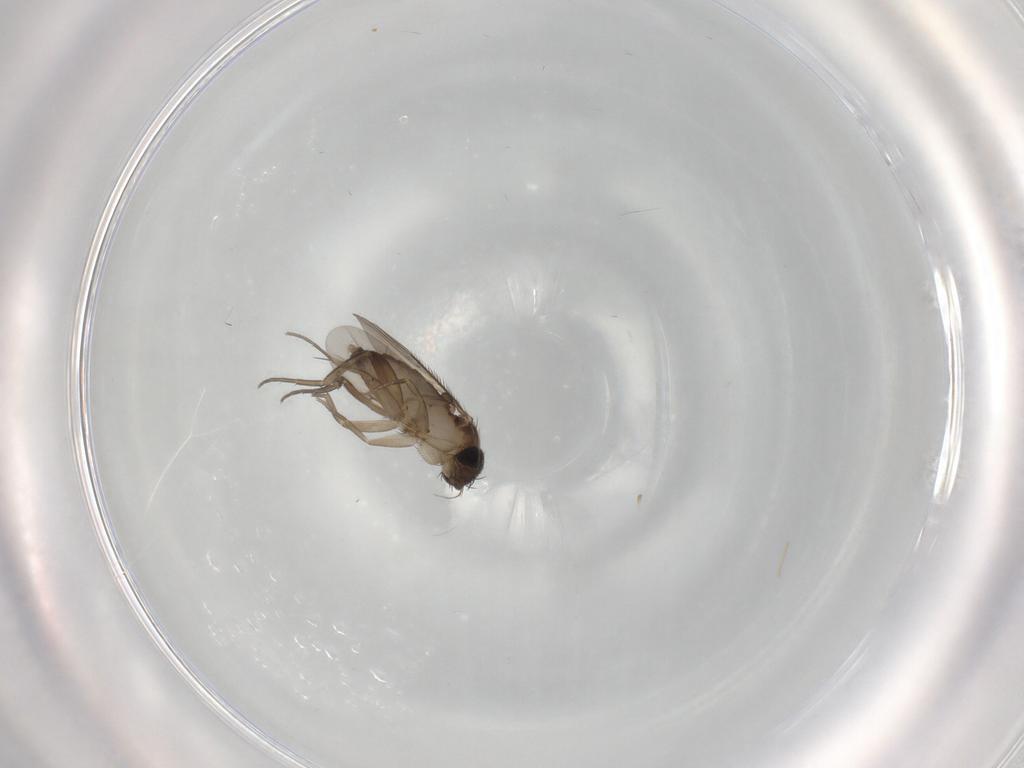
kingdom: Animalia
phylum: Arthropoda
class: Insecta
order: Diptera
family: Phoridae
